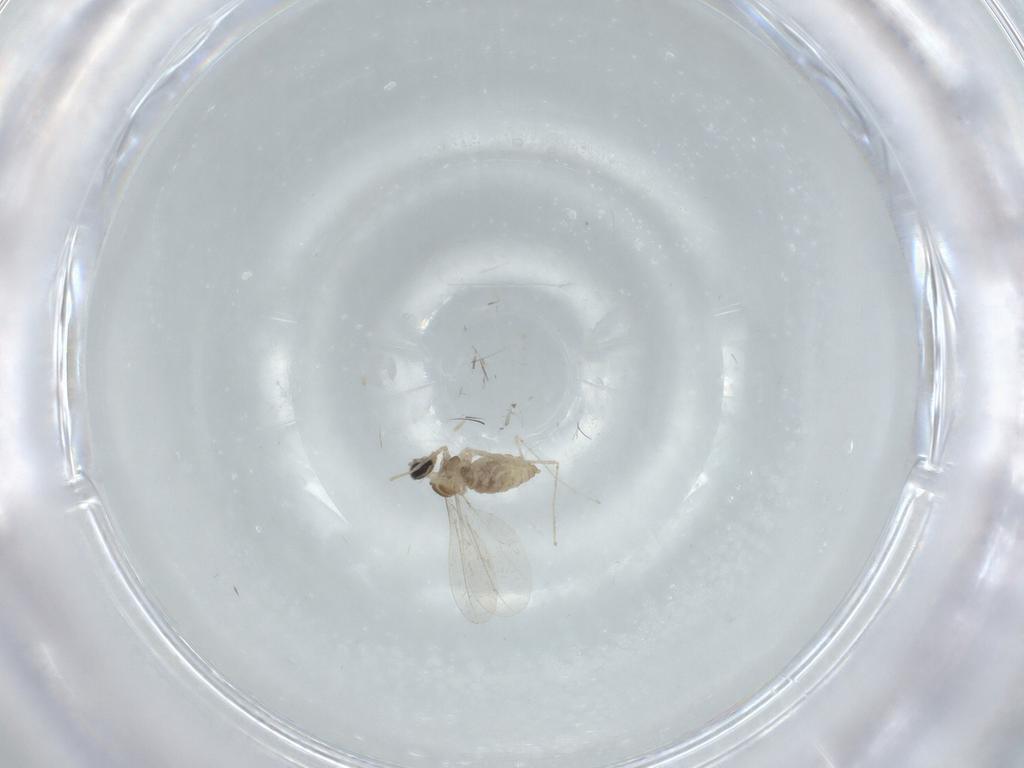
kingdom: Animalia
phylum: Arthropoda
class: Insecta
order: Diptera
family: Cecidomyiidae
